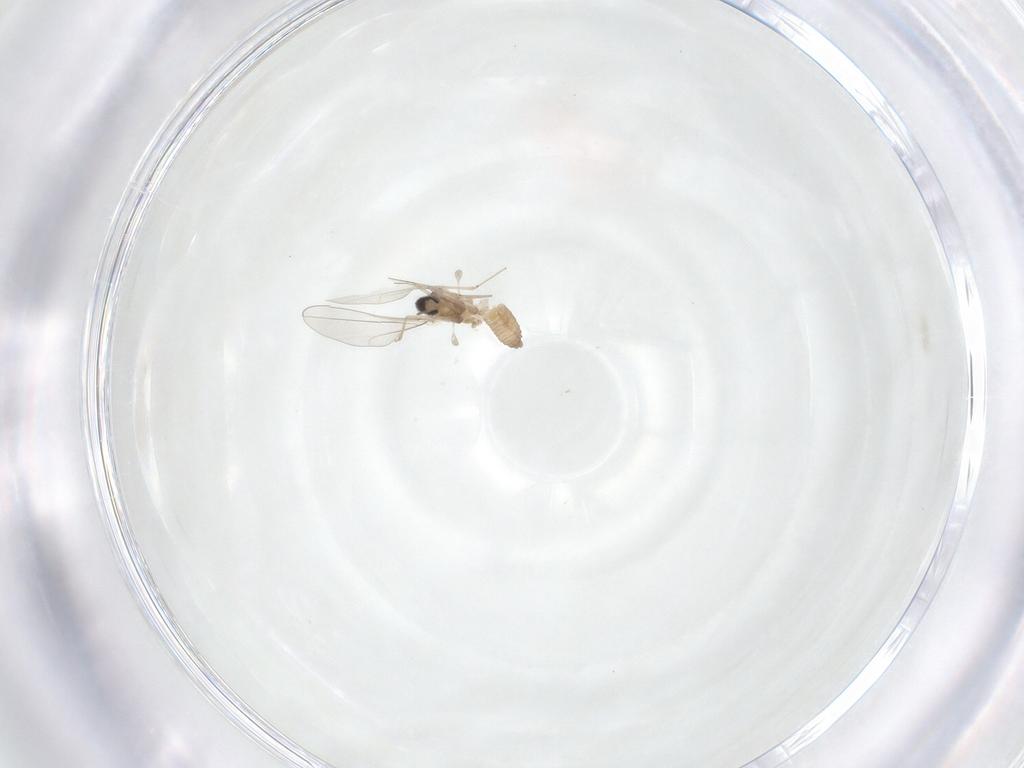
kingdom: Animalia
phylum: Arthropoda
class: Insecta
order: Diptera
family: Cecidomyiidae
